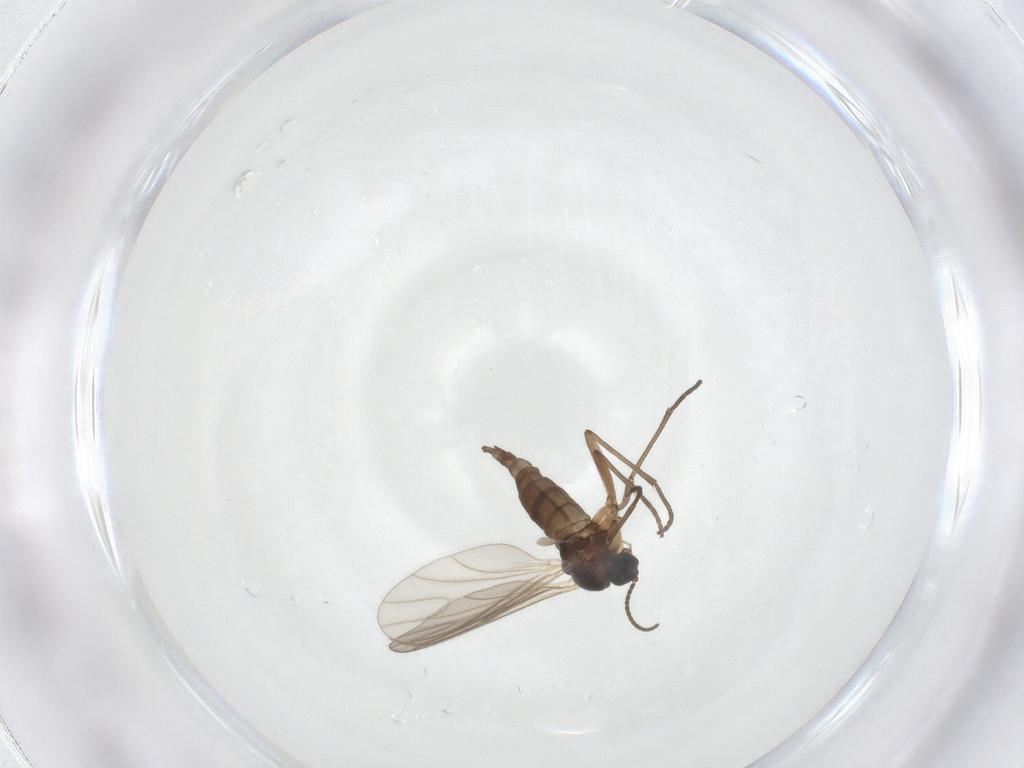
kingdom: Animalia
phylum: Arthropoda
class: Insecta
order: Diptera
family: Sciaridae
